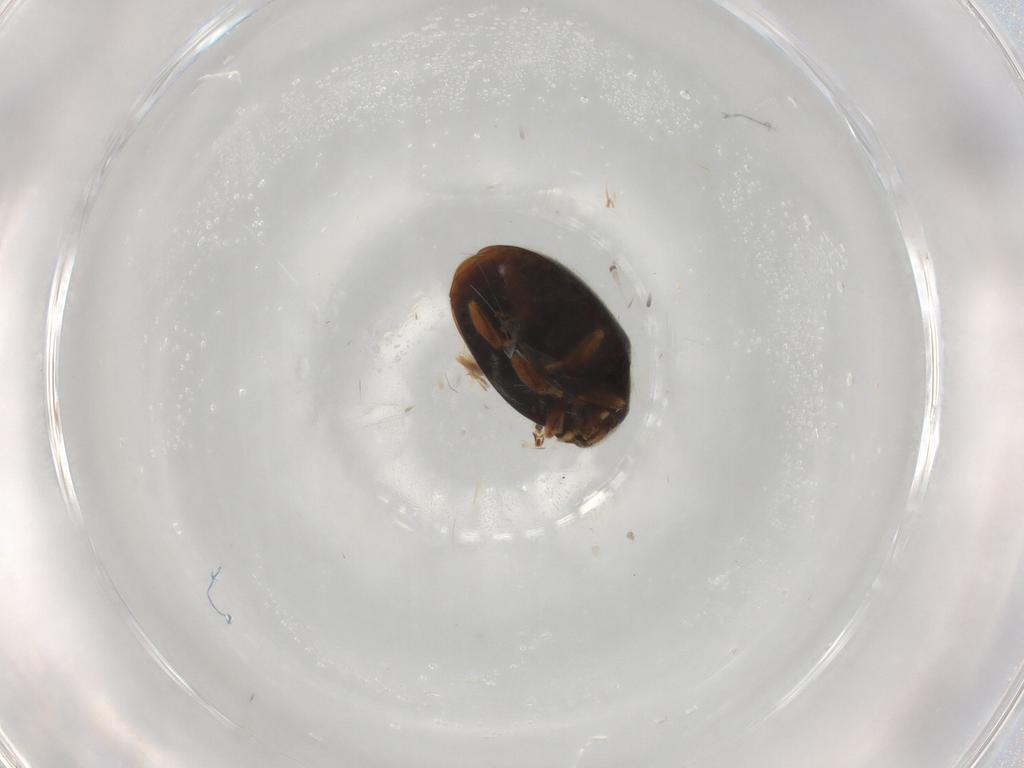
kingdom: Animalia
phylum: Arthropoda
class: Insecta
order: Coleoptera
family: Coccinellidae
